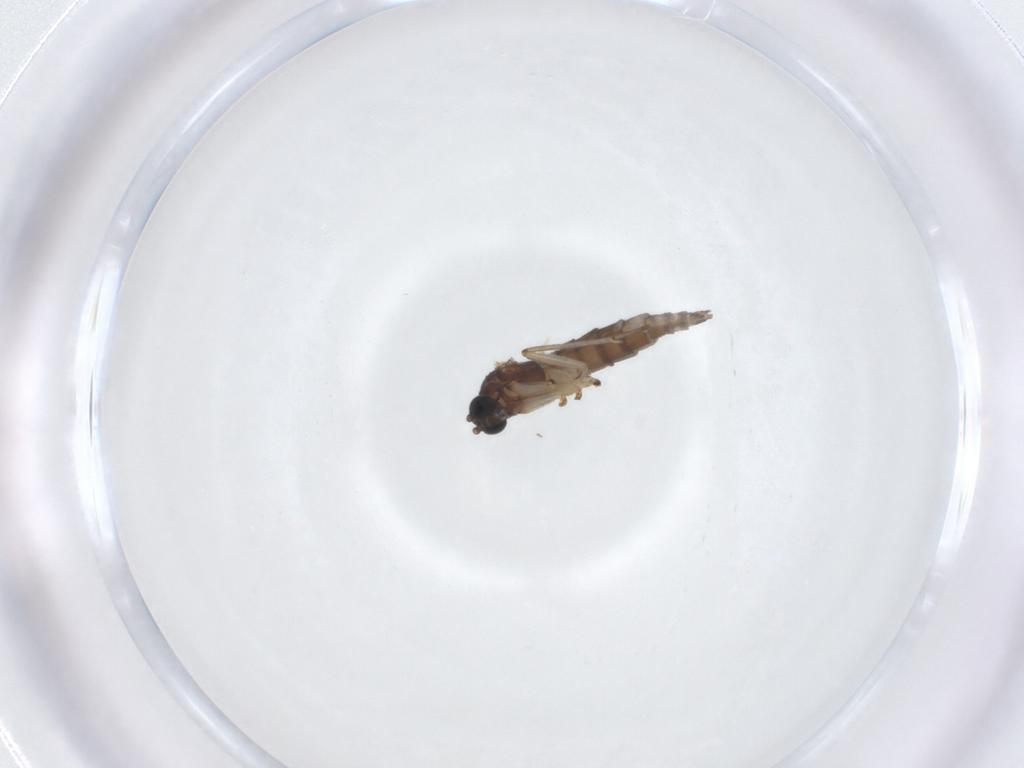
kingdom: Animalia
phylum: Arthropoda
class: Insecta
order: Diptera
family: Sciaridae
